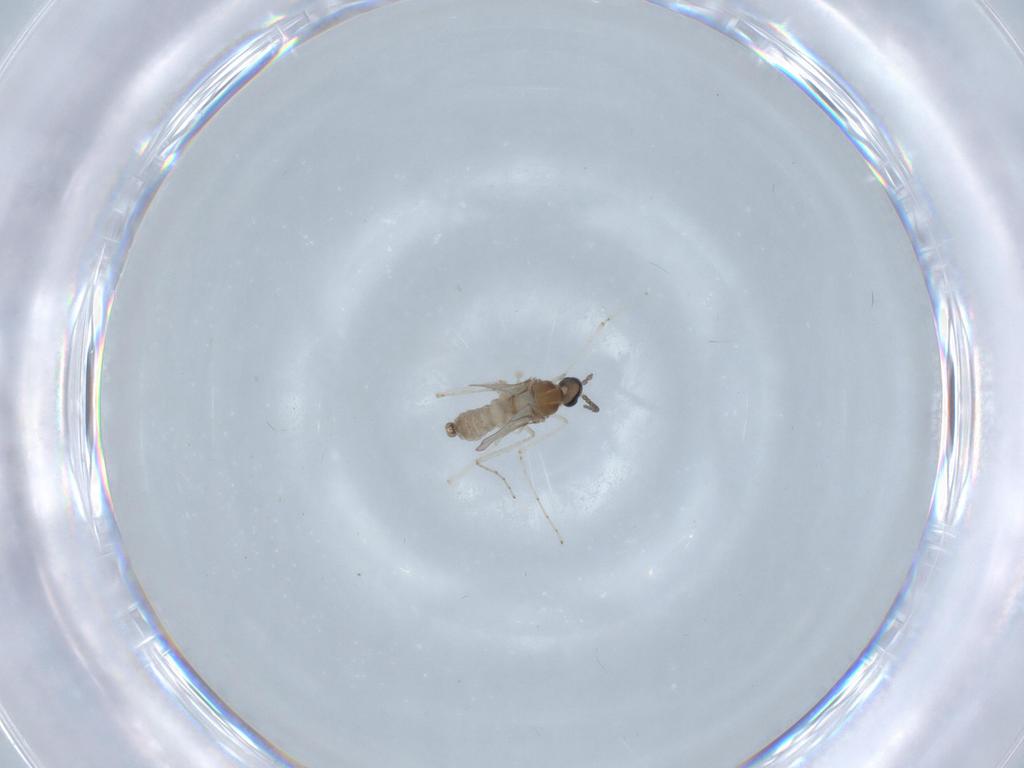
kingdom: Animalia
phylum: Arthropoda
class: Insecta
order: Diptera
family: Cecidomyiidae
